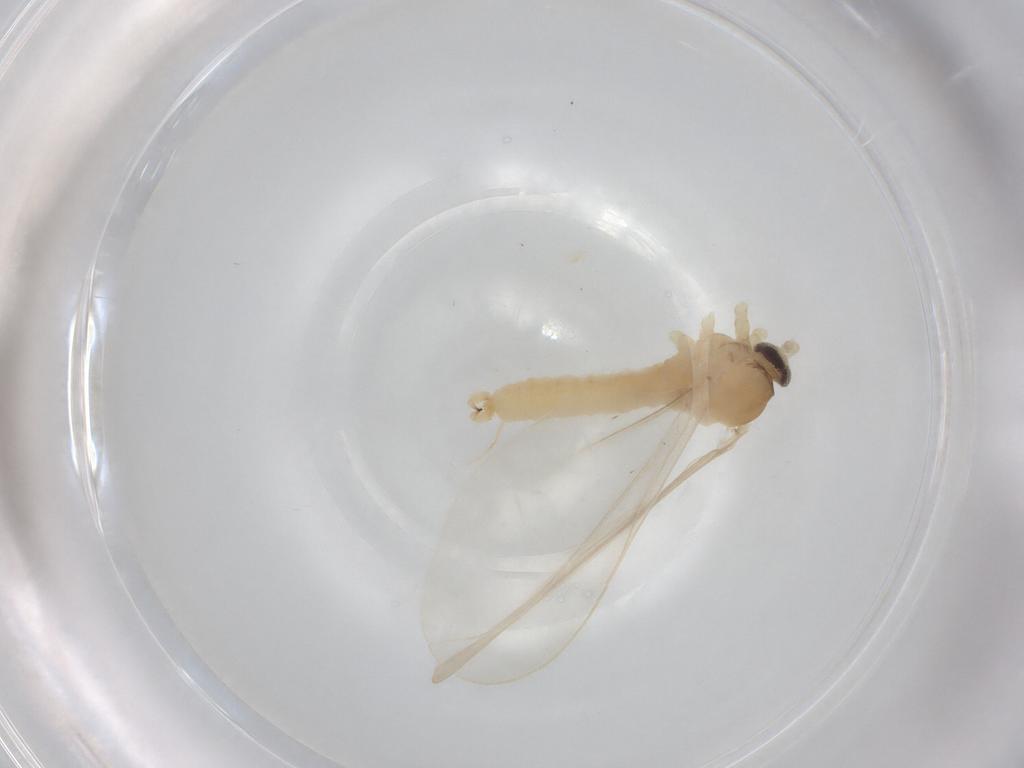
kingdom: Animalia
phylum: Arthropoda
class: Insecta
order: Diptera
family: Cecidomyiidae
